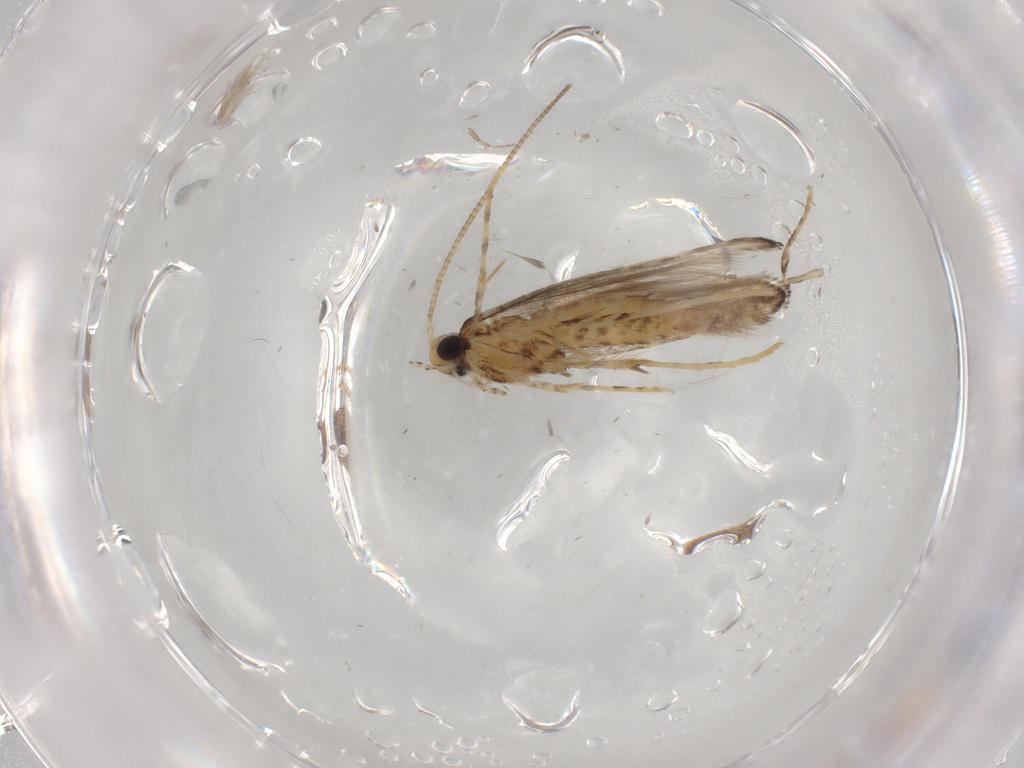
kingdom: Animalia
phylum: Arthropoda
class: Insecta
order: Lepidoptera
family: Oecophoridae
